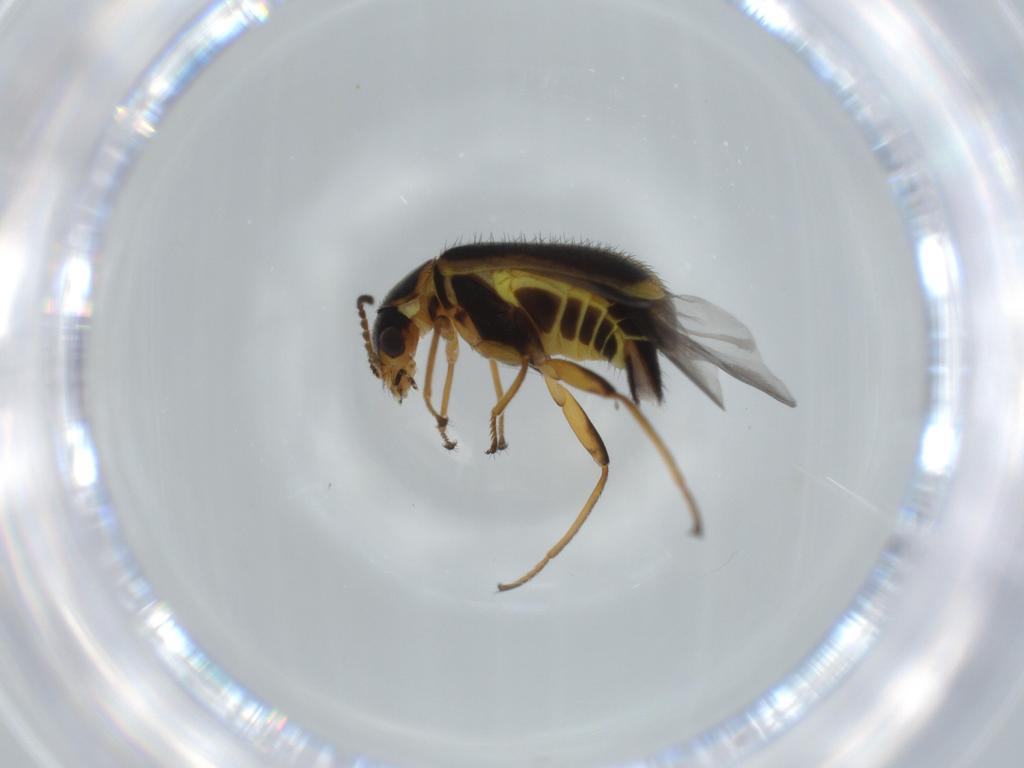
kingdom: Animalia
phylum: Arthropoda
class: Insecta
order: Coleoptera
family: Melyridae
